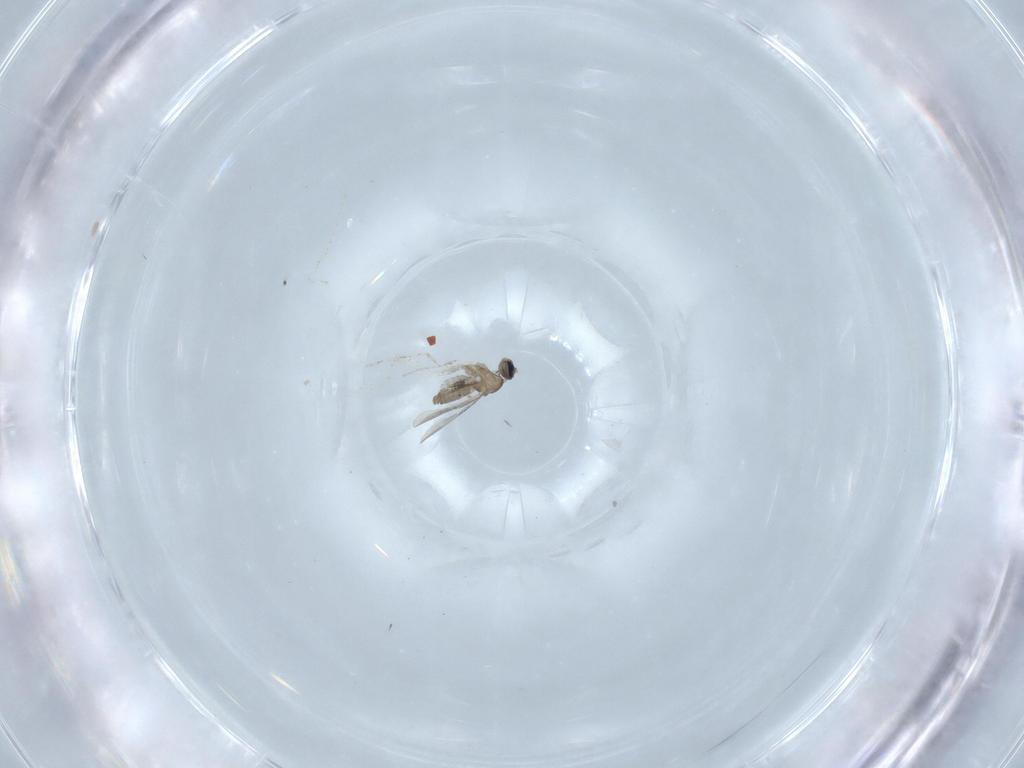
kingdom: Animalia
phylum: Arthropoda
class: Insecta
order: Diptera
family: Cecidomyiidae
